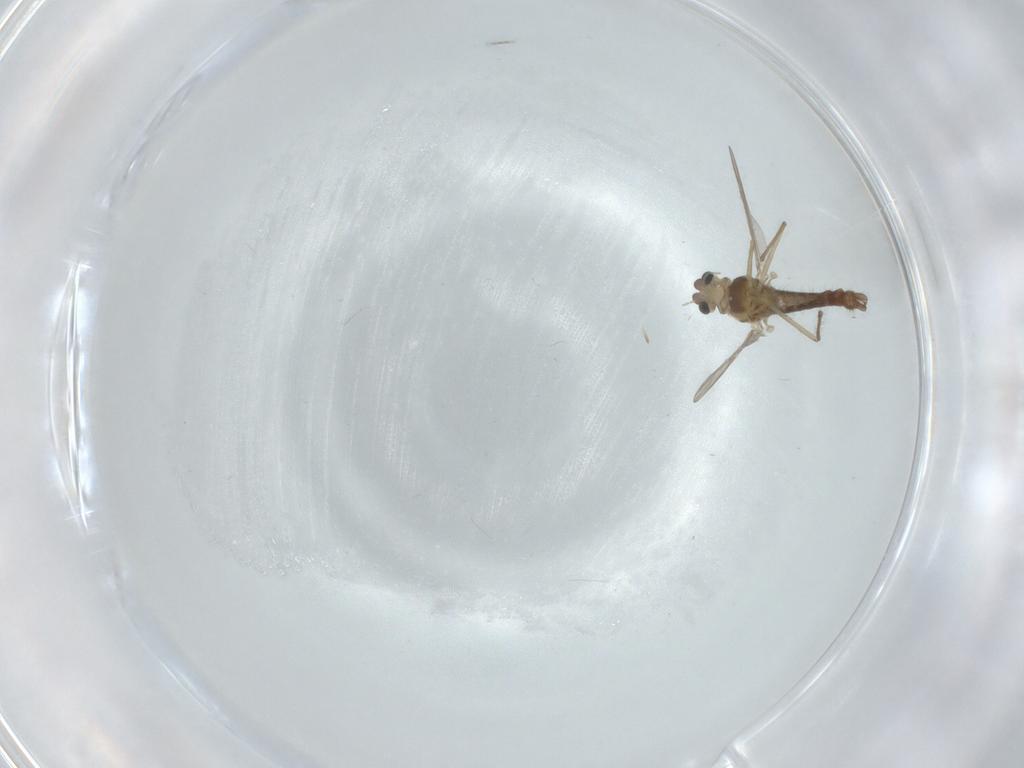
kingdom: Animalia
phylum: Arthropoda
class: Insecta
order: Diptera
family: Chironomidae
